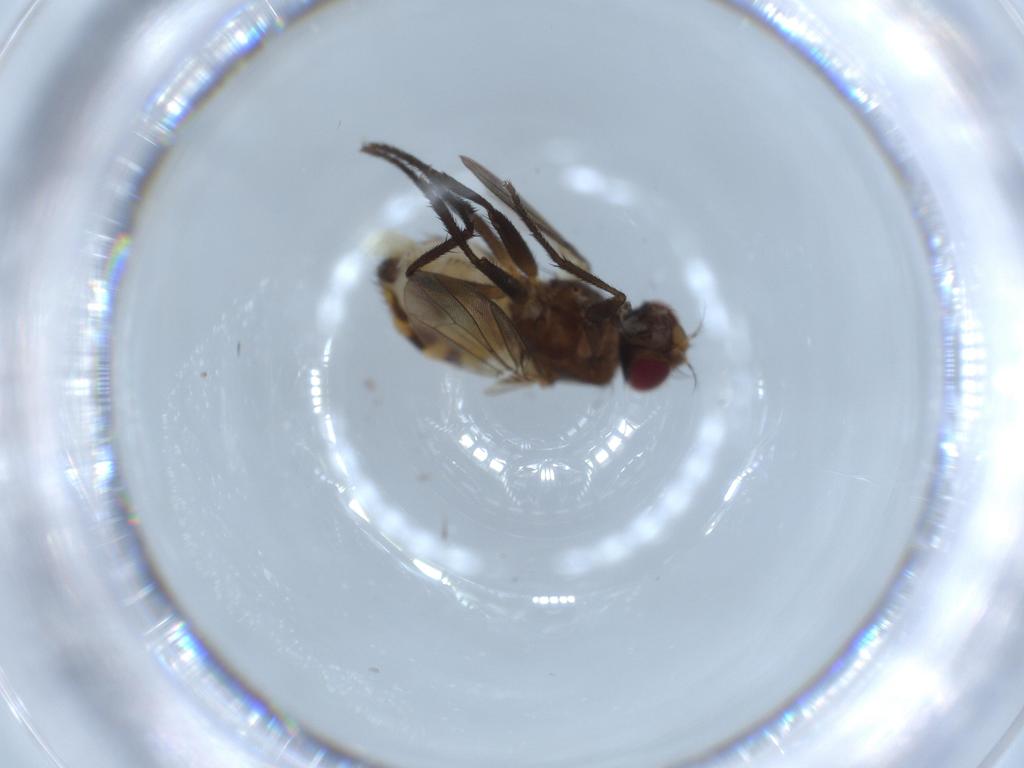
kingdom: Animalia
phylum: Arthropoda
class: Insecta
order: Diptera
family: Anthomyiidae
